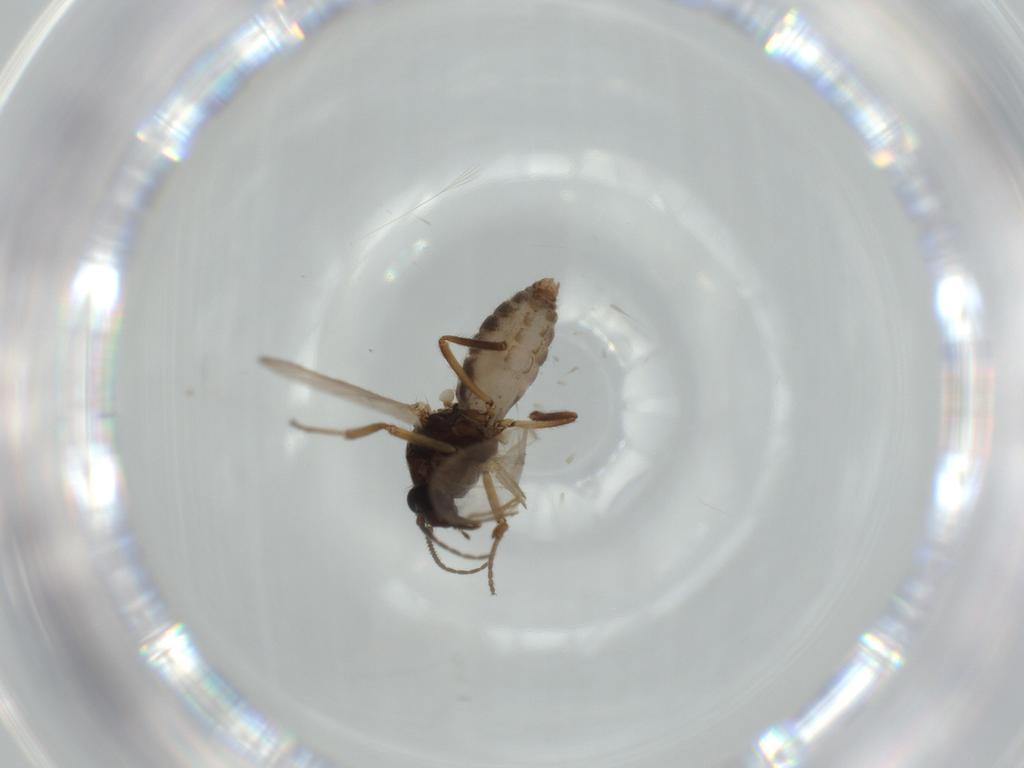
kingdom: Animalia
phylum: Arthropoda
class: Insecta
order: Diptera
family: Ceratopogonidae
